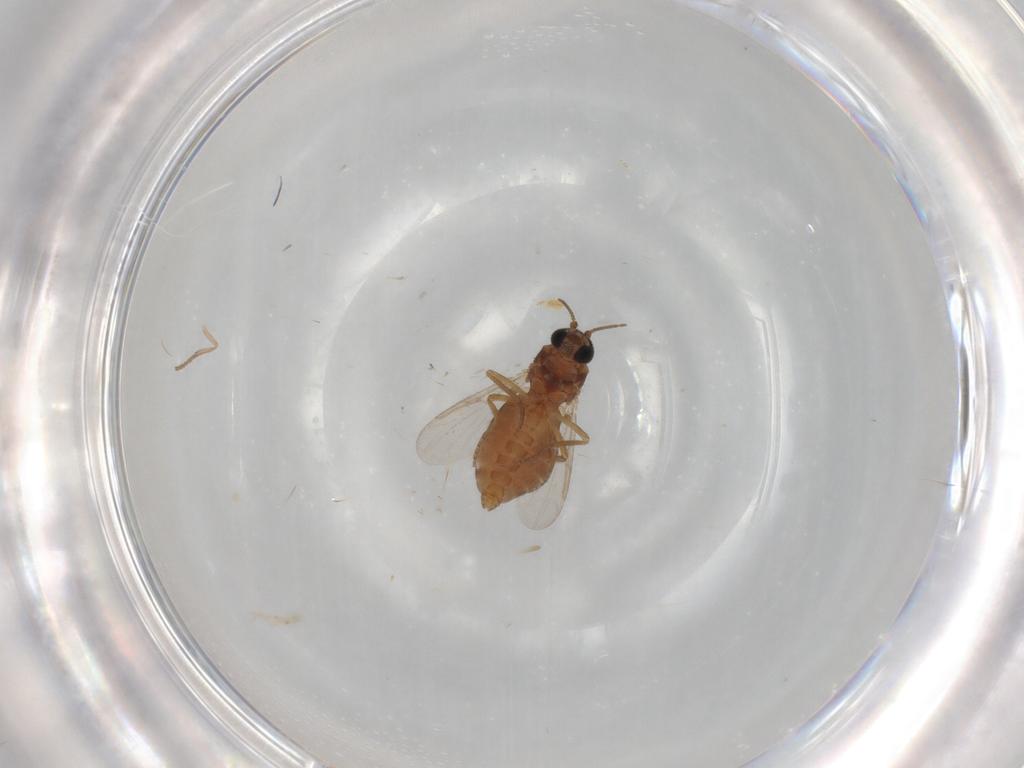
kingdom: Animalia
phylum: Arthropoda
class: Insecta
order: Diptera
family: Ceratopogonidae
